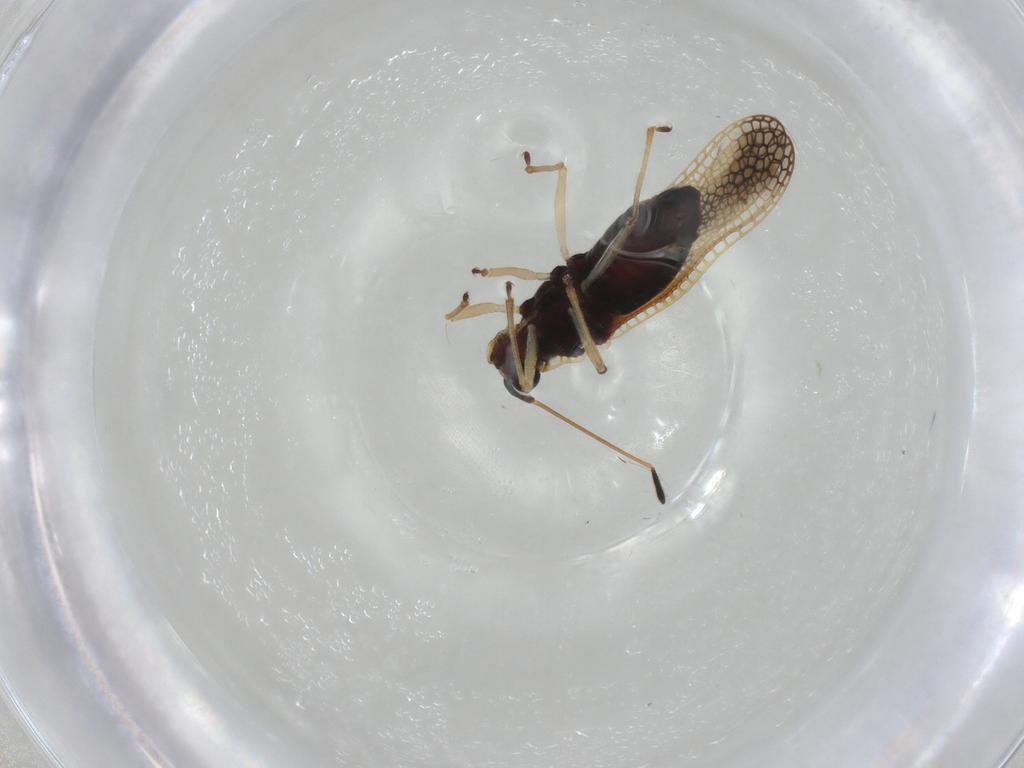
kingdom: Animalia
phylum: Arthropoda
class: Insecta
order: Hemiptera
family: Tingidae
